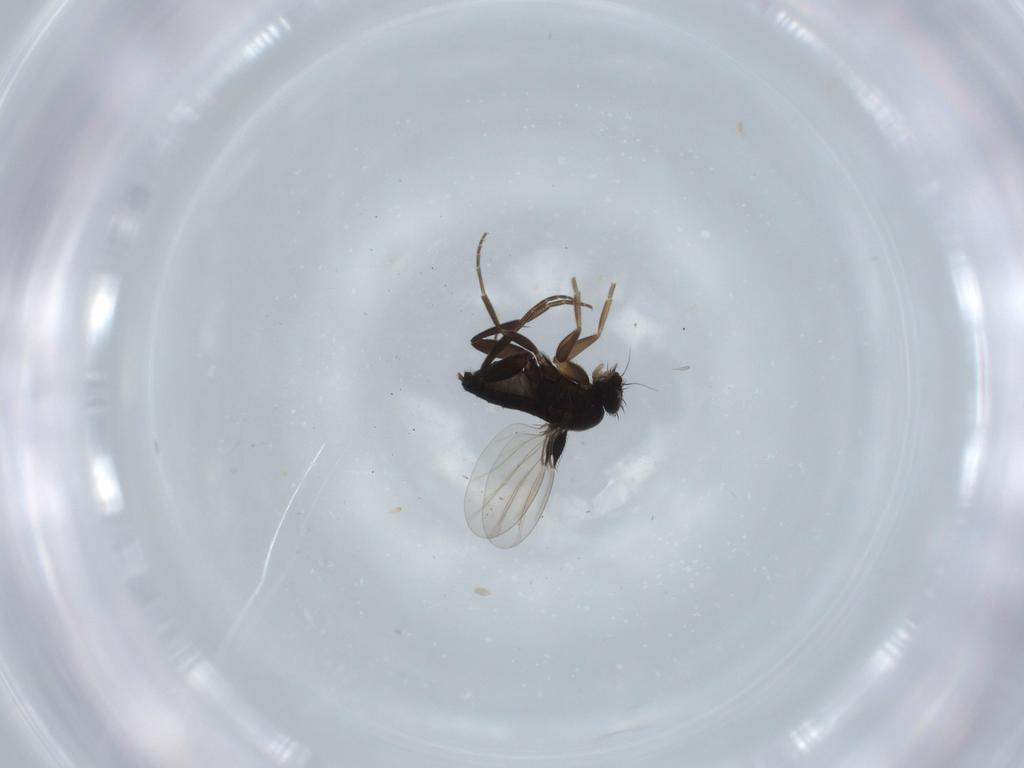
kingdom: Animalia
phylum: Arthropoda
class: Insecta
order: Diptera
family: Phoridae
